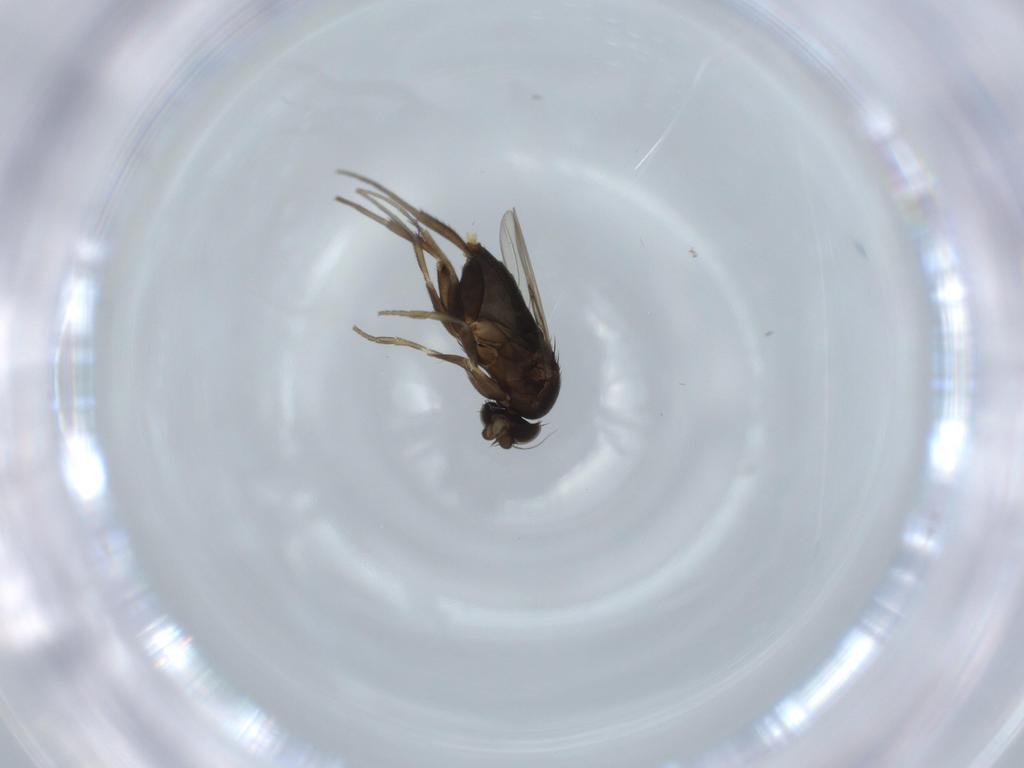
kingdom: Animalia
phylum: Arthropoda
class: Insecta
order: Diptera
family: Phoridae
